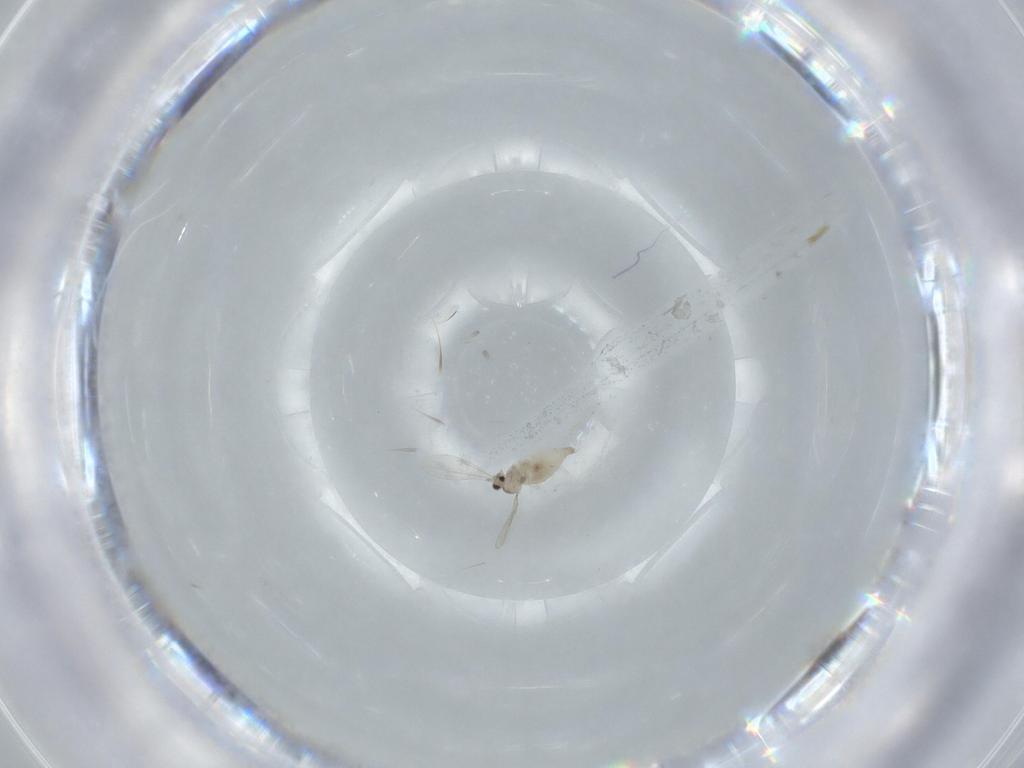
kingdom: Animalia
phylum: Arthropoda
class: Insecta
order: Diptera
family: Cecidomyiidae
